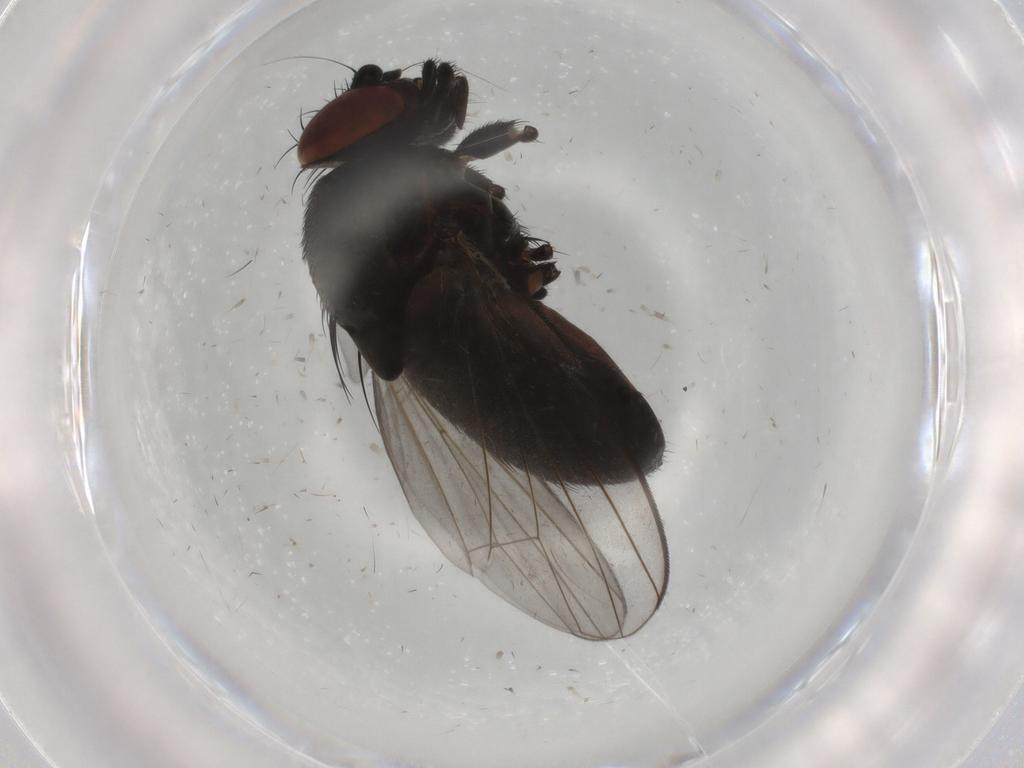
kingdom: Animalia
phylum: Arthropoda
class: Insecta
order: Diptera
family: Milichiidae
